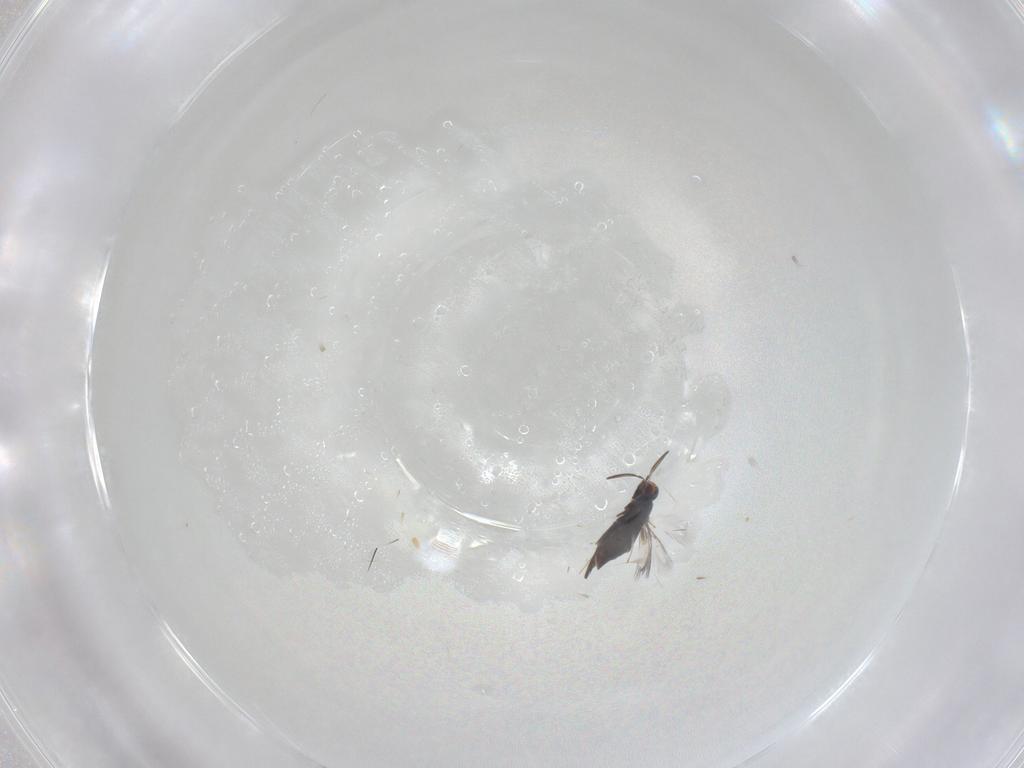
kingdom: Animalia
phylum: Arthropoda
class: Insecta
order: Hymenoptera
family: Signiphoridae
